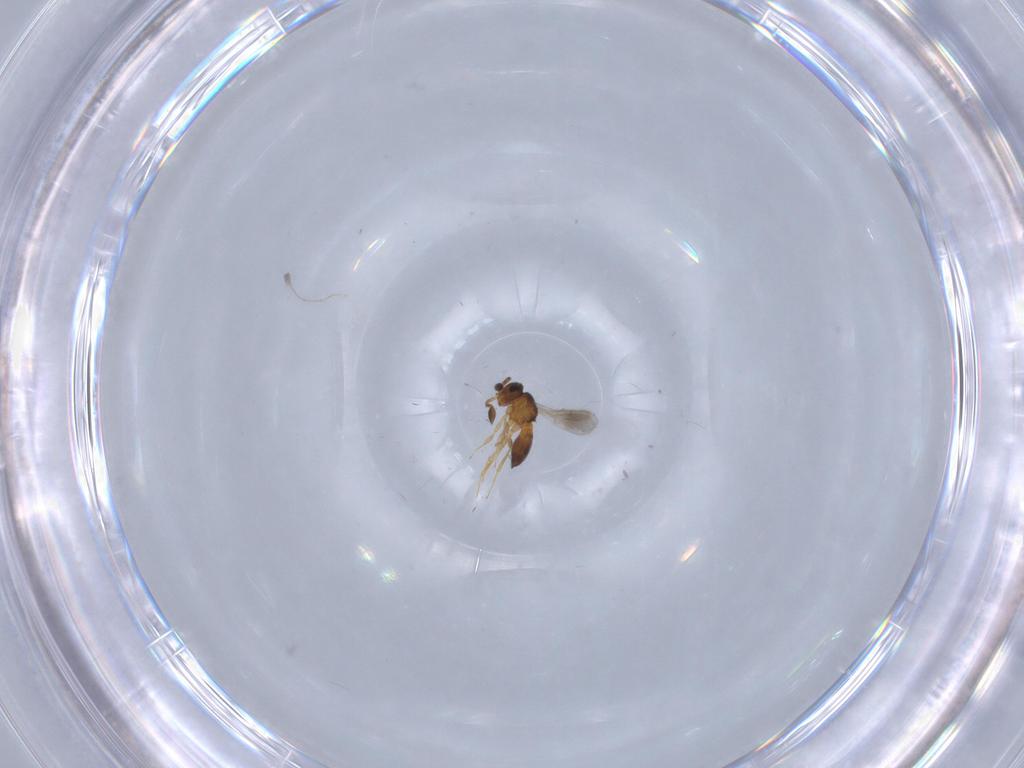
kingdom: Animalia
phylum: Arthropoda
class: Insecta
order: Hymenoptera
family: Scelionidae
